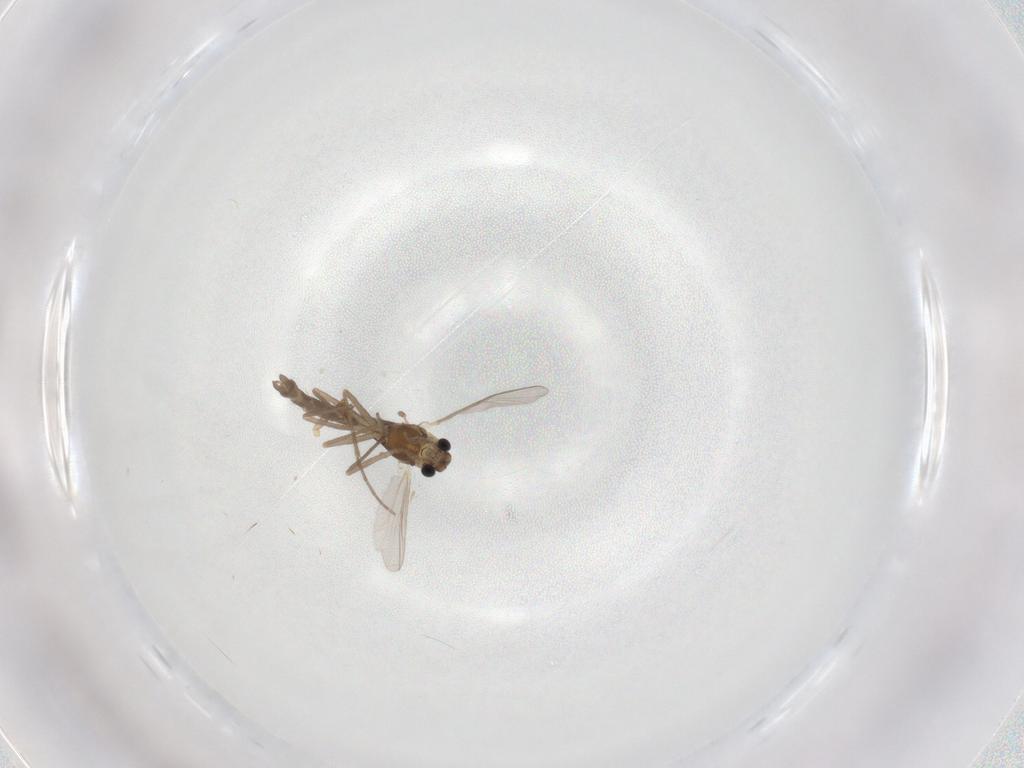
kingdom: Animalia
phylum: Arthropoda
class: Insecta
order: Diptera
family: Chironomidae
